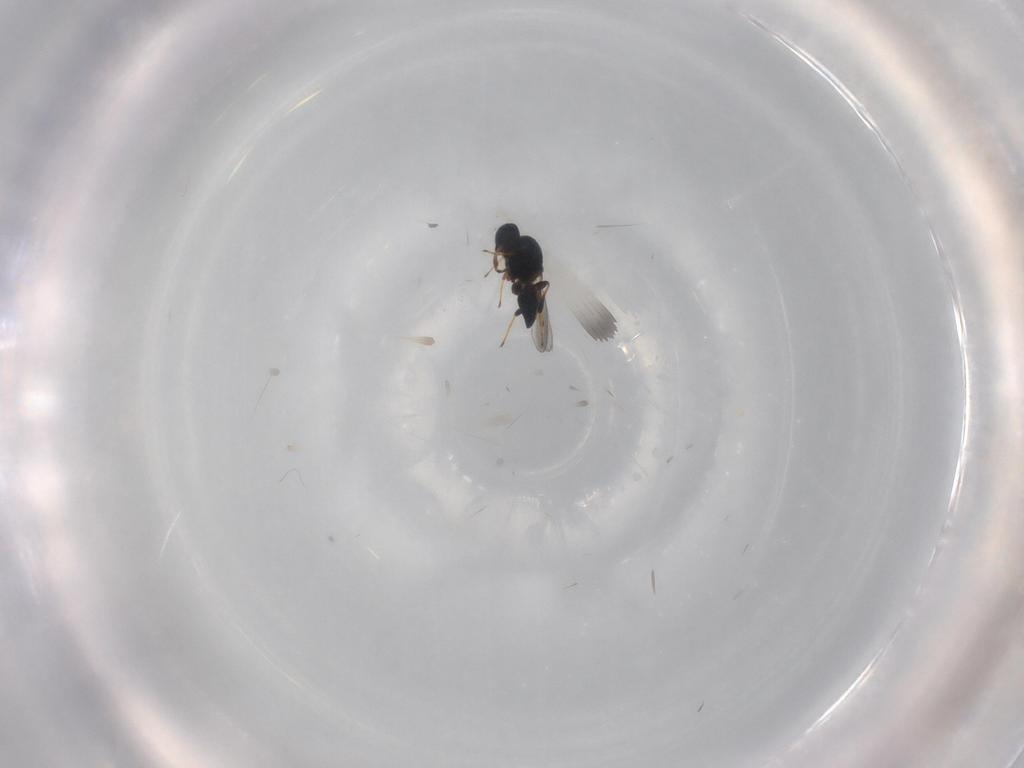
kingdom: Animalia
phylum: Arthropoda
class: Insecta
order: Hymenoptera
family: Platygastridae
